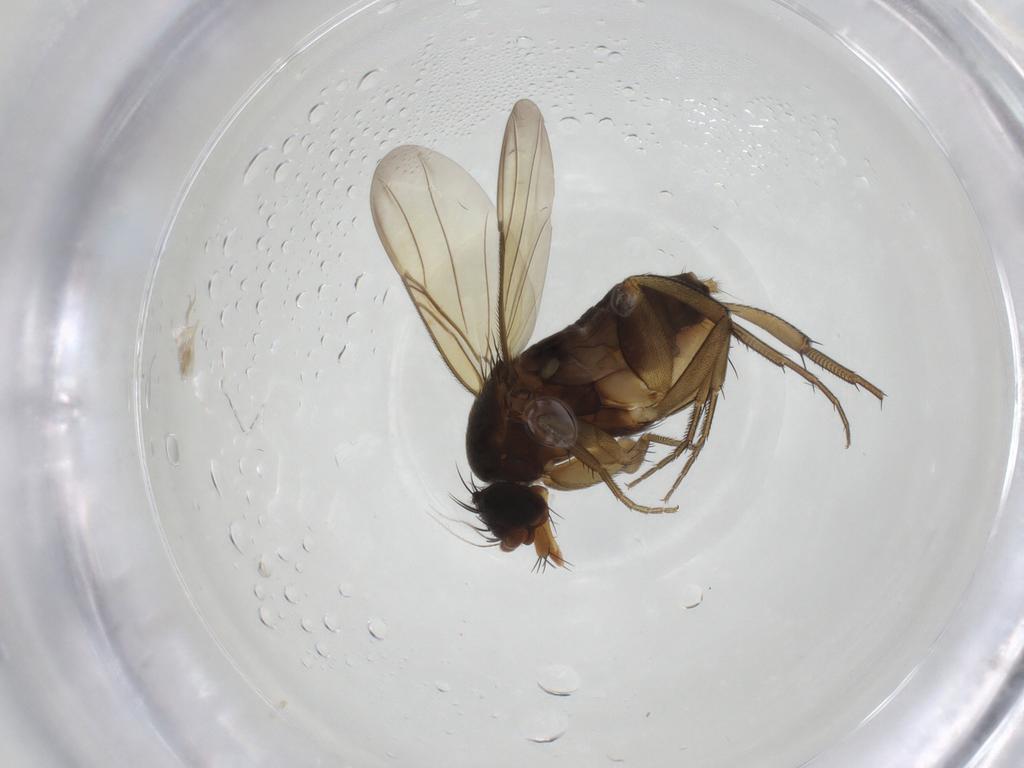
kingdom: Animalia
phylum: Arthropoda
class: Insecta
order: Diptera
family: Phoridae
